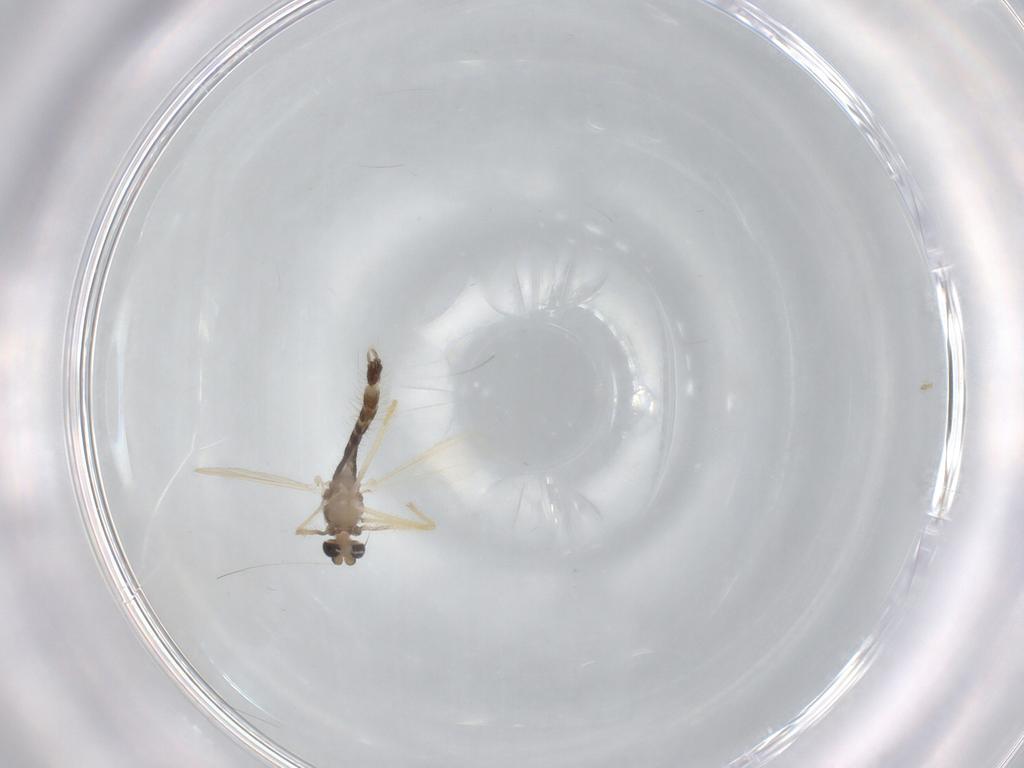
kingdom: Animalia
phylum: Arthropoda
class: Insecta
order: Diptera
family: Chironomidae
